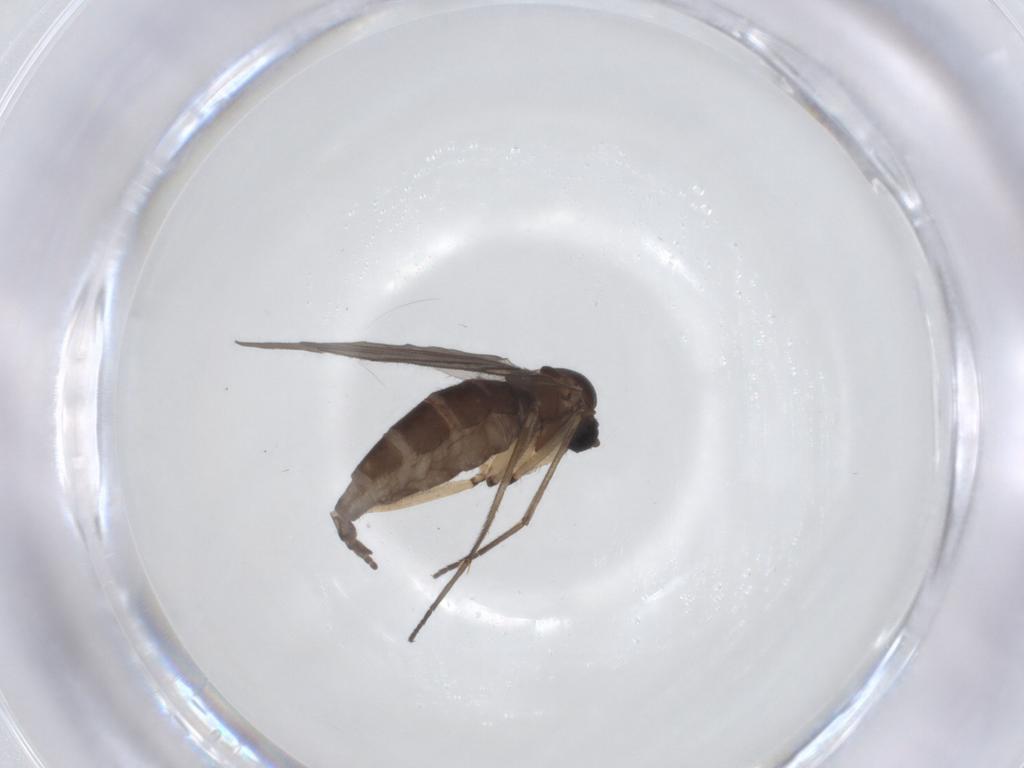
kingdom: Animalia
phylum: Arthropoda
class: Insecta
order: Diptera
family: Sciaridae
